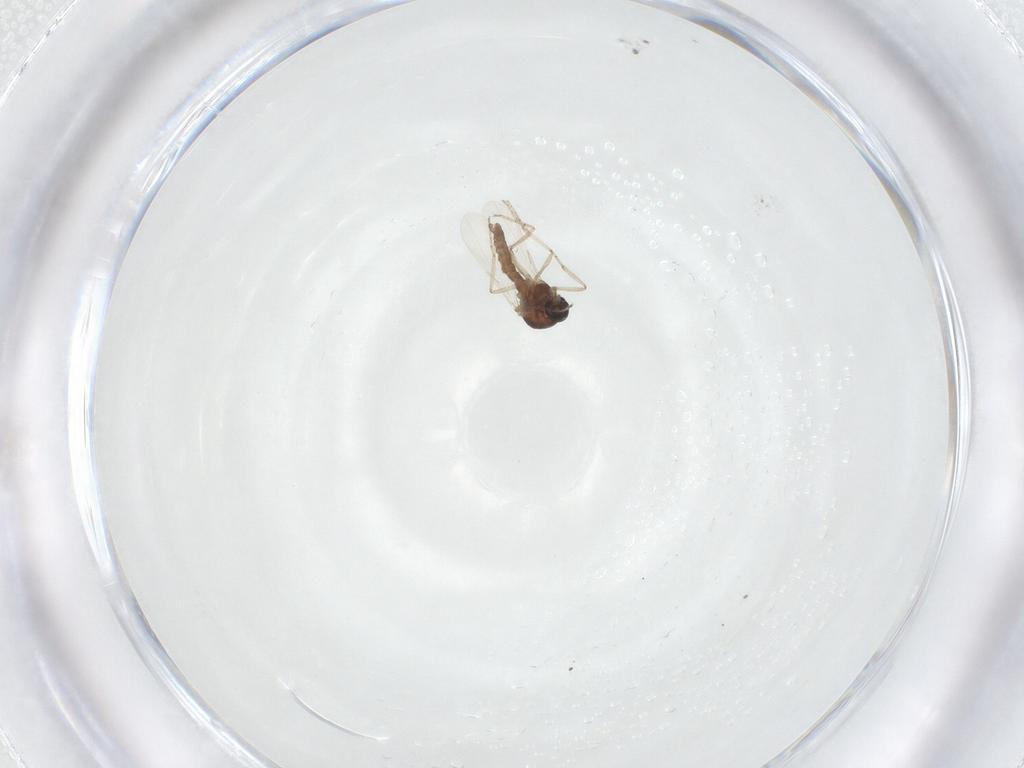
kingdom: Animalia
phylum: Arthropoda
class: Insecta
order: Diptera
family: Ceratopogonidae
